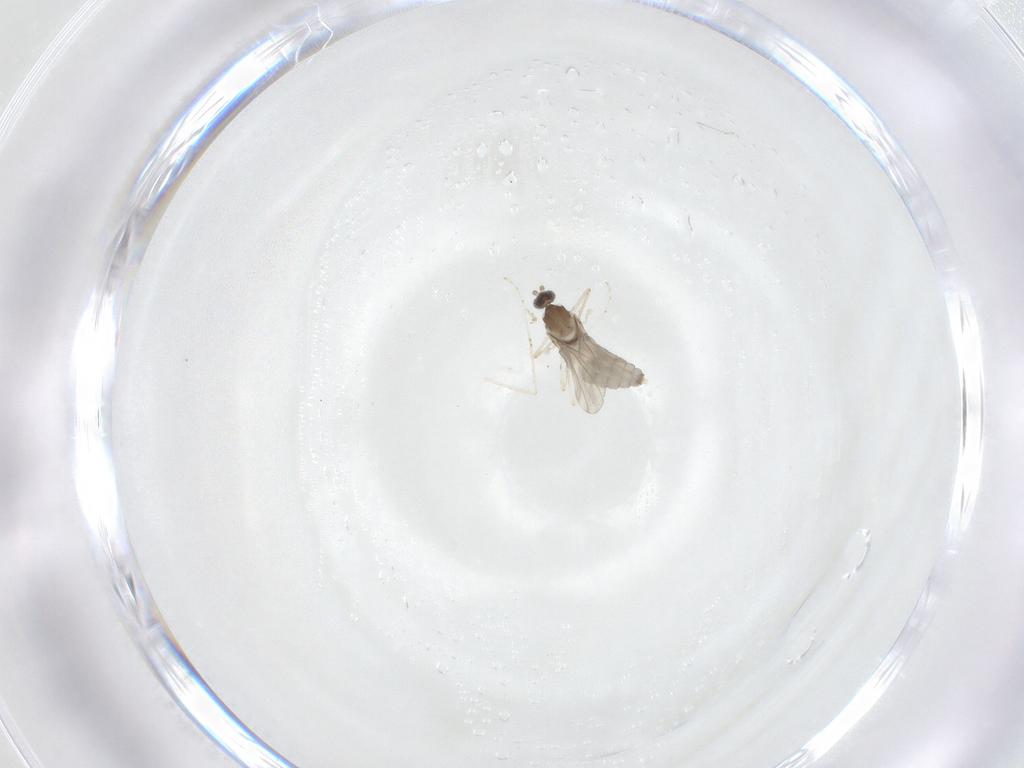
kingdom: Animalia
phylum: Arthropoda
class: Insecta
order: Diptera
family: Cecidomyiidae
